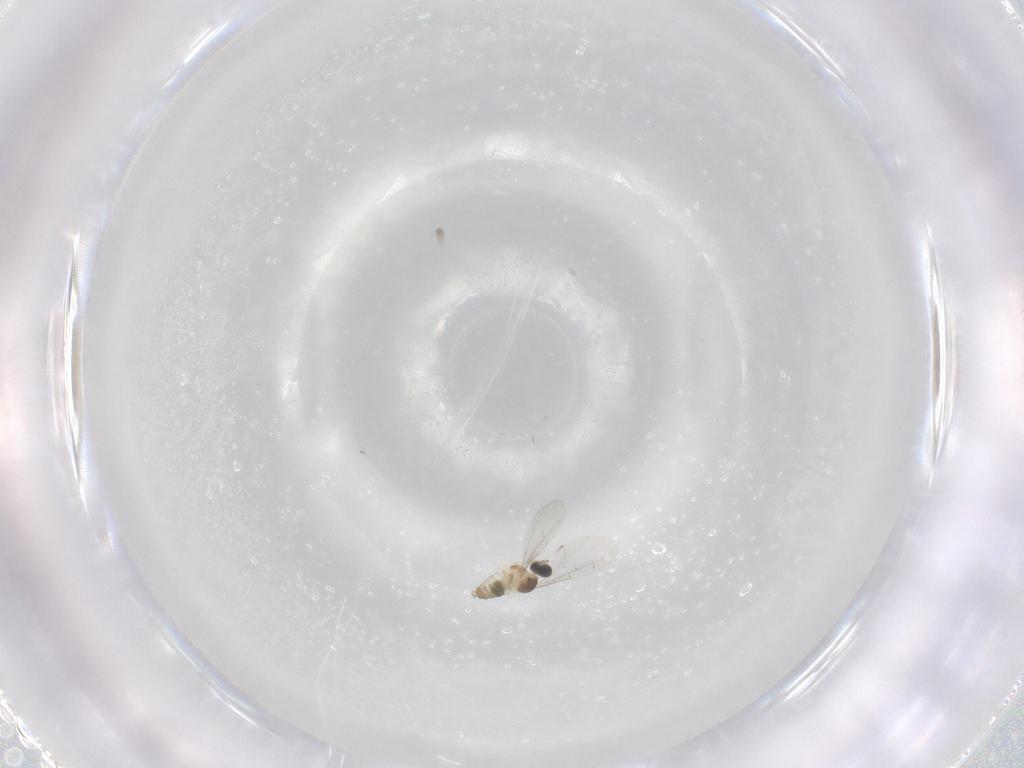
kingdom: Animalia
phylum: Arthropoda
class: Insecta
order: Diptera
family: Cecidomyiidae
